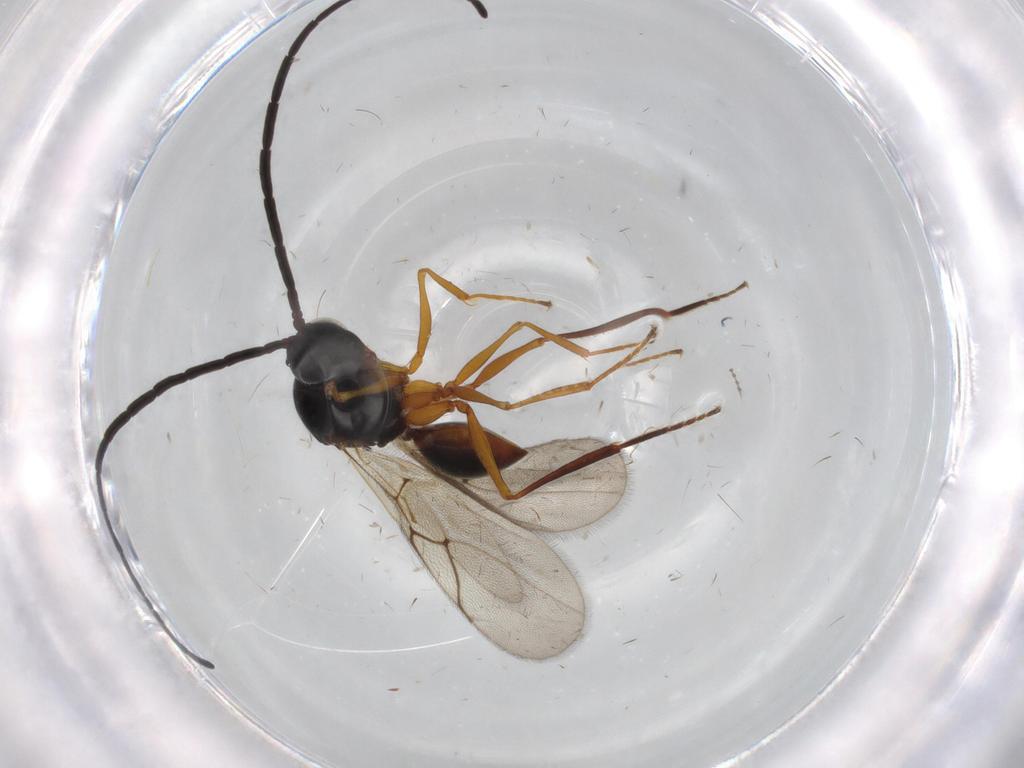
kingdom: Animalia
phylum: Arthropoda
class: Insecta
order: Hymenoptera
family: Figitidae
